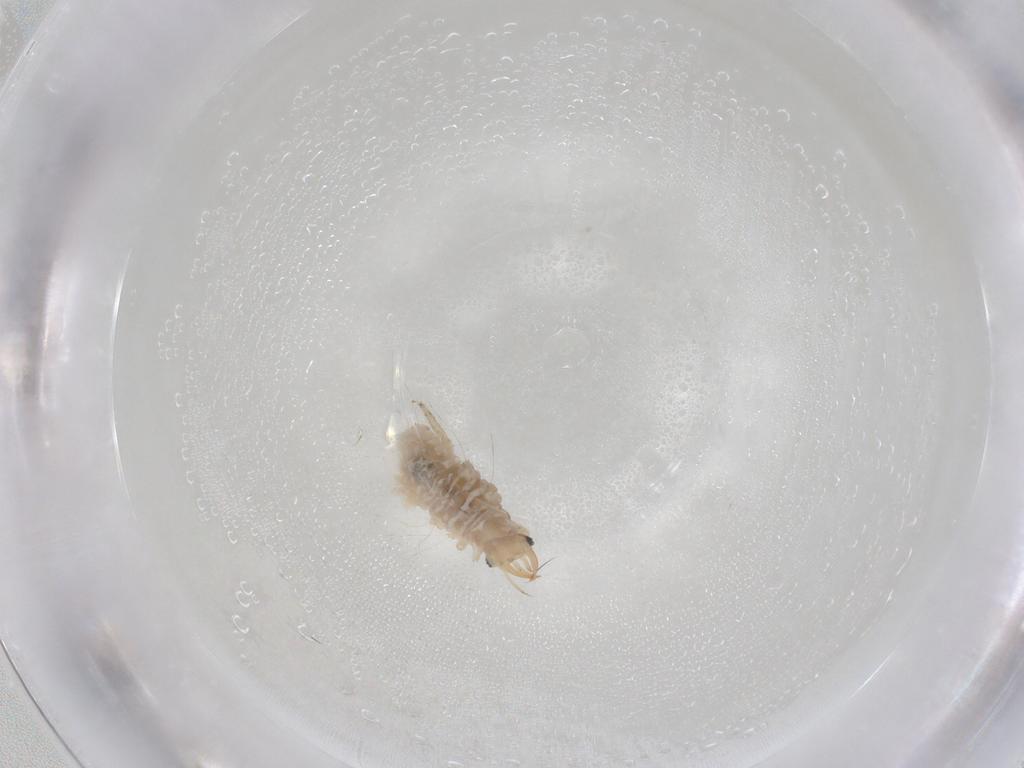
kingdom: Animalia
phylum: Arthropoda
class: Insecta
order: Neuroptera
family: Chrysopidae
